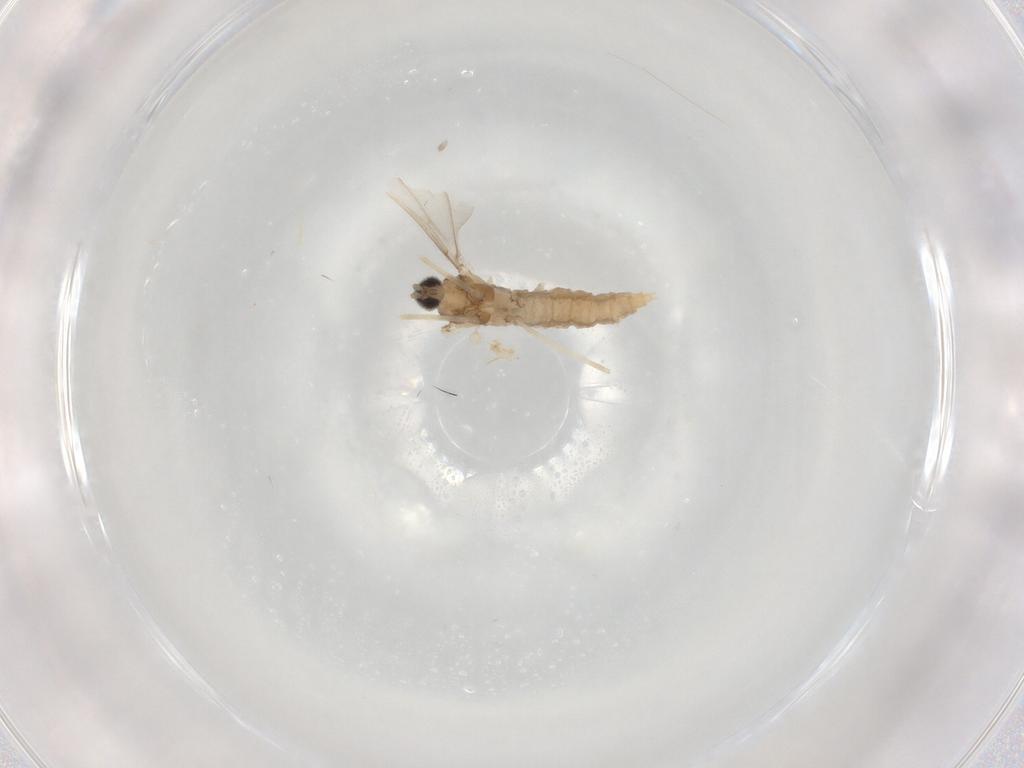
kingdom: Animalia
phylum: Arthropoda
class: Insecta
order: Diptera
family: Cecidomyiidae
